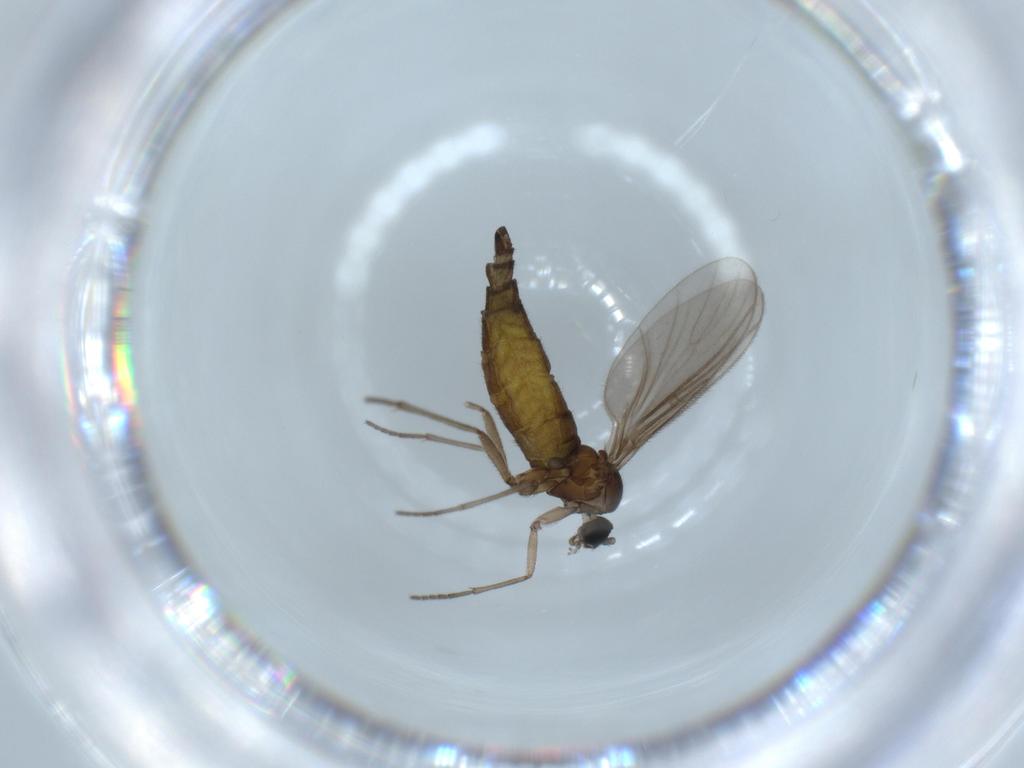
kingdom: Animalia
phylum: Arthropoda
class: Insecta
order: Diptera
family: Sciaridae
